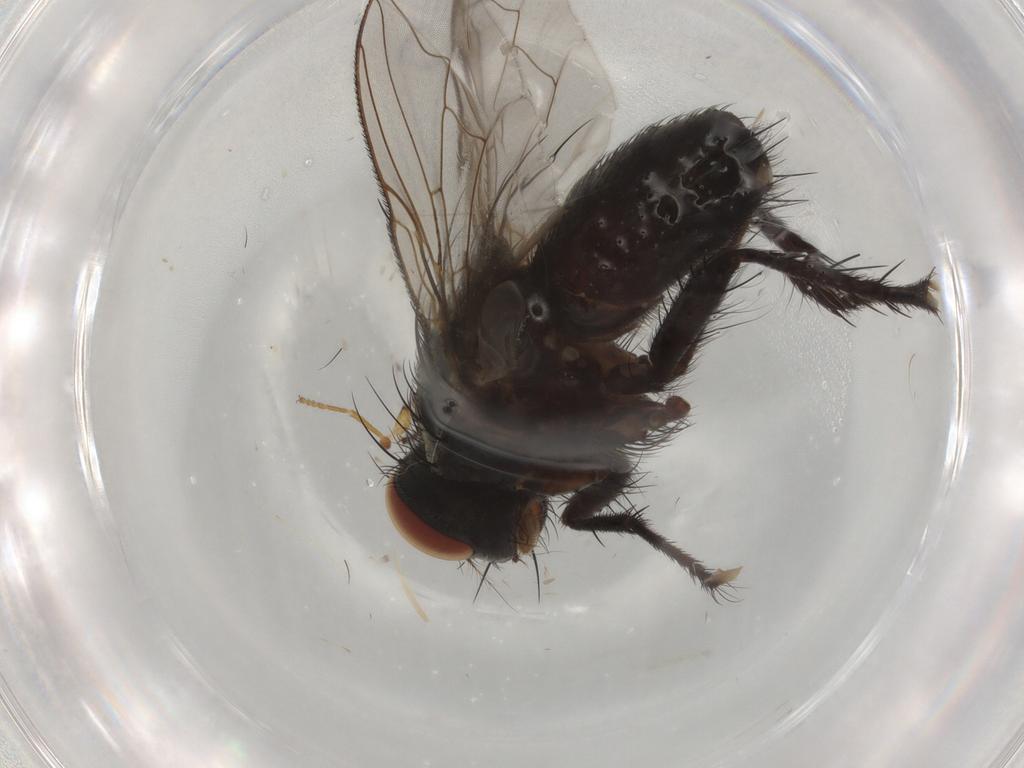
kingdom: Animalia
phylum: Arthropoda
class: Insecta
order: Diptera
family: Sarcophagidae
